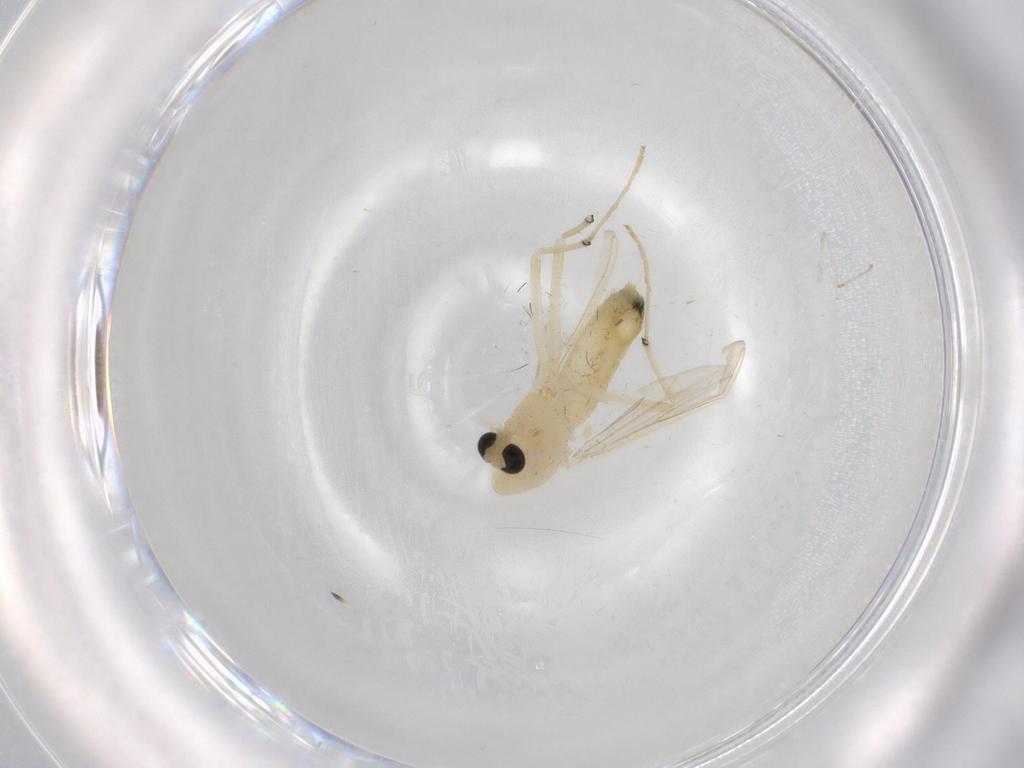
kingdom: Animalia
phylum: Arthropoda
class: Insecta
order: Diptera
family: Chironomidae
